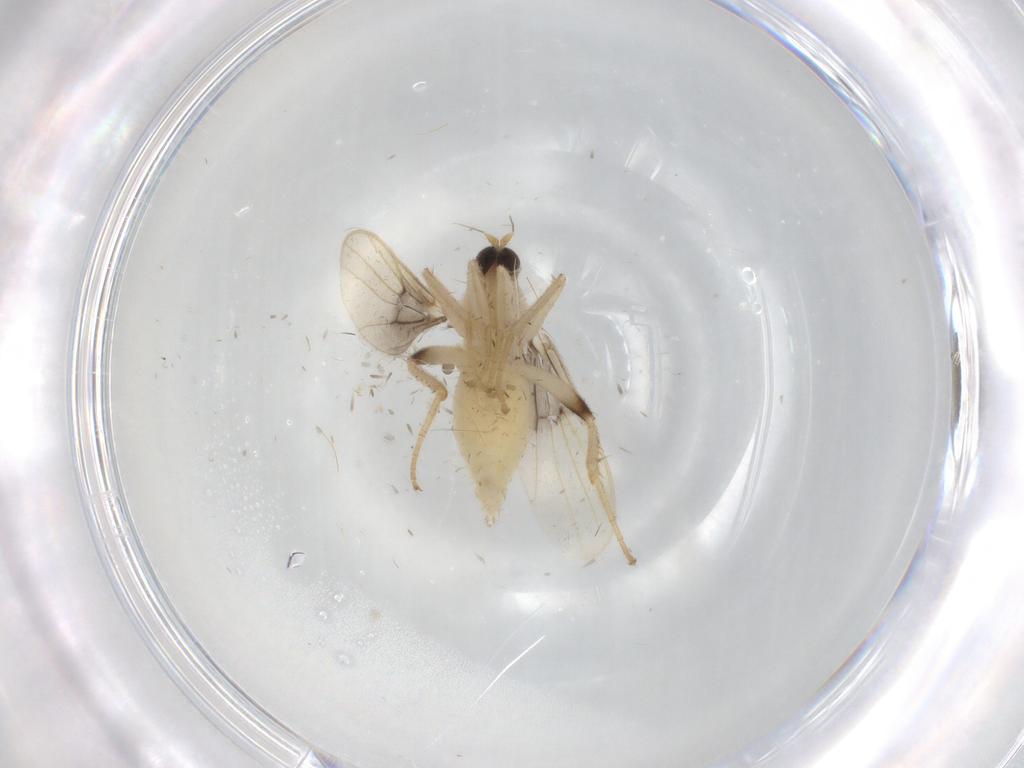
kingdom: Animalia
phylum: Arthropoda
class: Insecta
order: Diptera
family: Hybotidae
